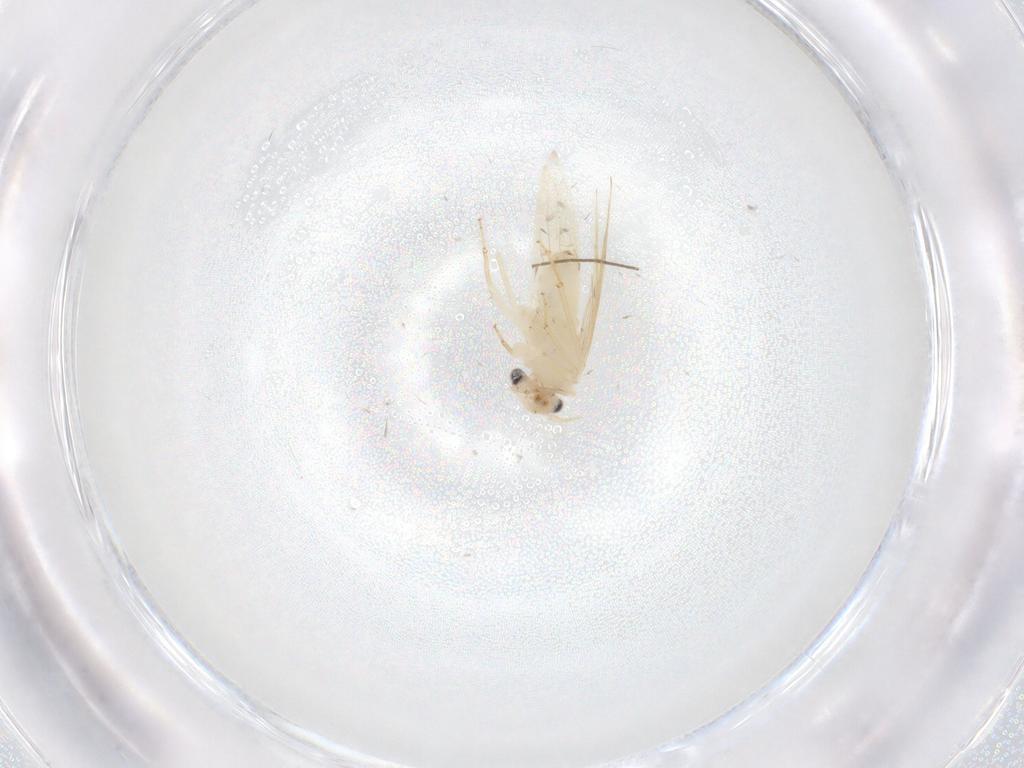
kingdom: Animalia
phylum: Arthropoda
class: Insecta
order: Psocodea
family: Lepidopsocidae
